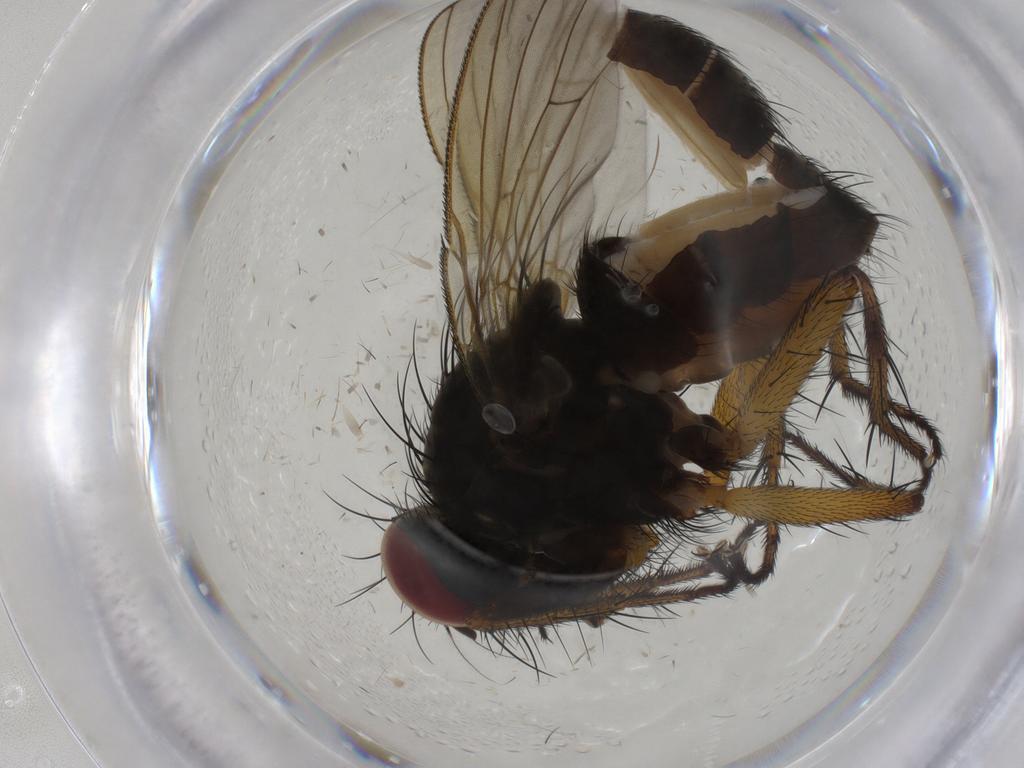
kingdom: Animalia
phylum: Arthropoda
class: Insecta
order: Diptera
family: Muscidae
